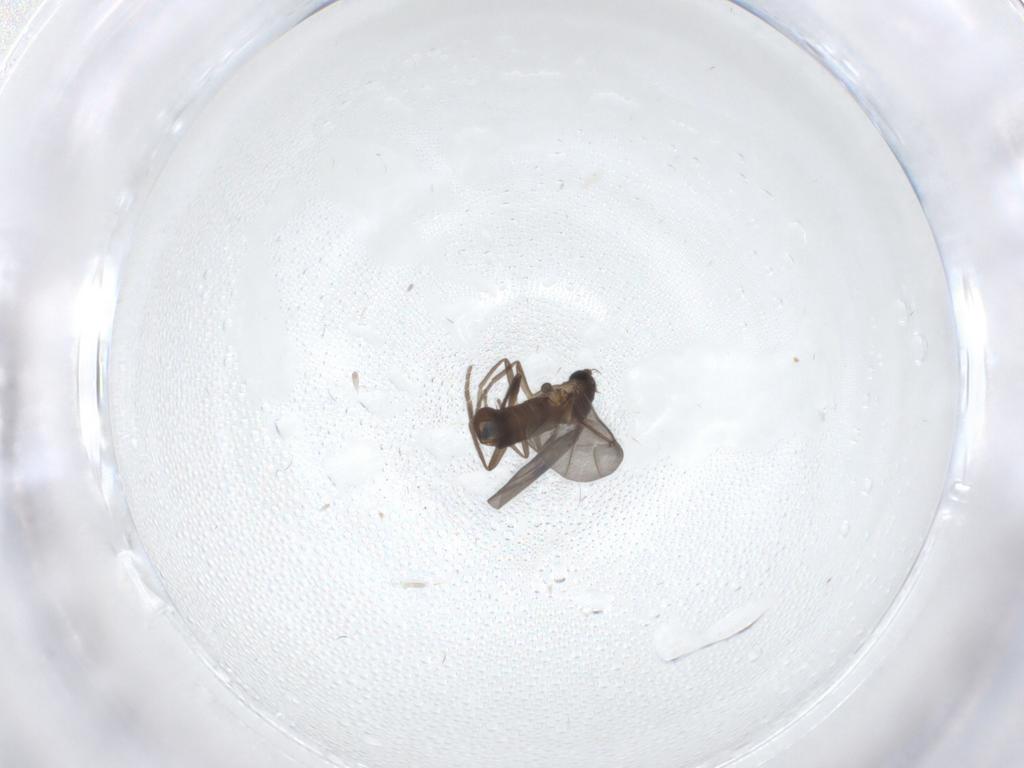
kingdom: Animalia
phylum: Arthropoda
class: Insecta
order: Diptera
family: Phoridae
